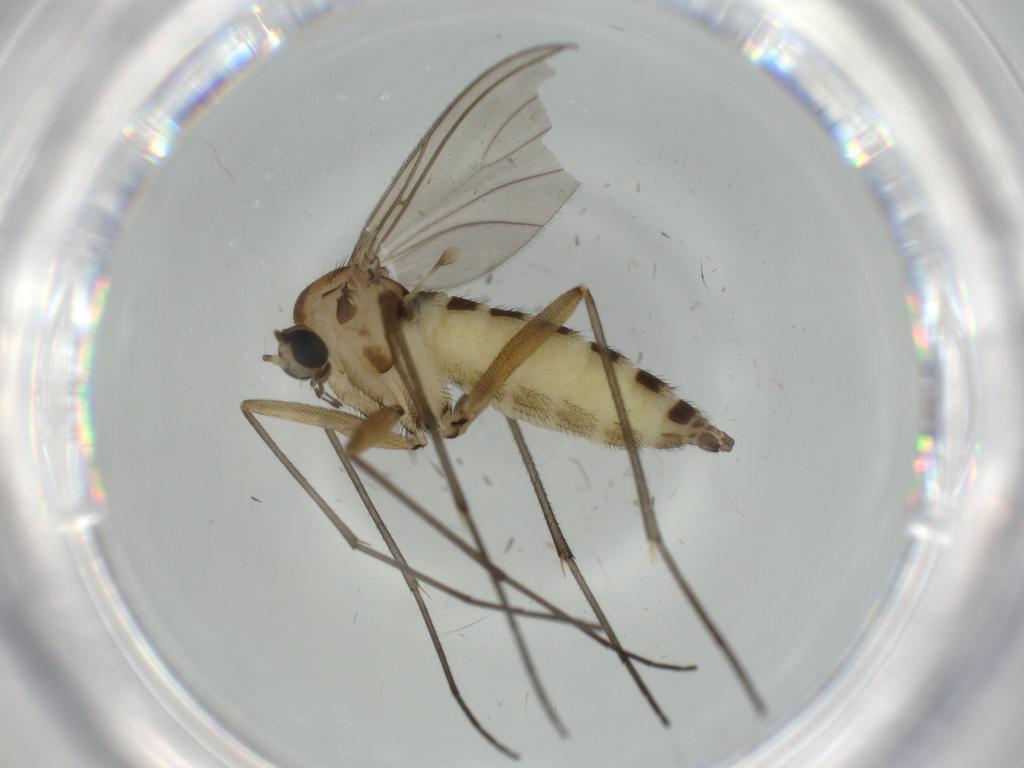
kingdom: Animalia
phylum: Arthropoda
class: Insecta
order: Diptera
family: Sciaridae
